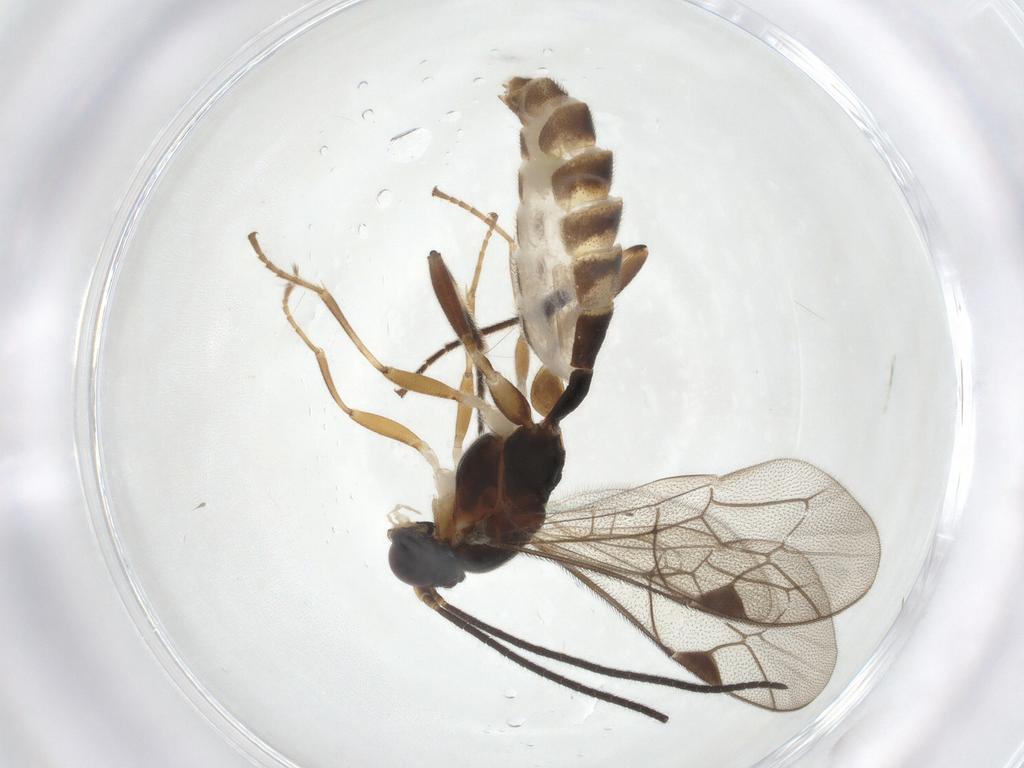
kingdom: Animalia
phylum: Arthropoda
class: Insecta
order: Hymenoptera
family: Ichneumonidae
